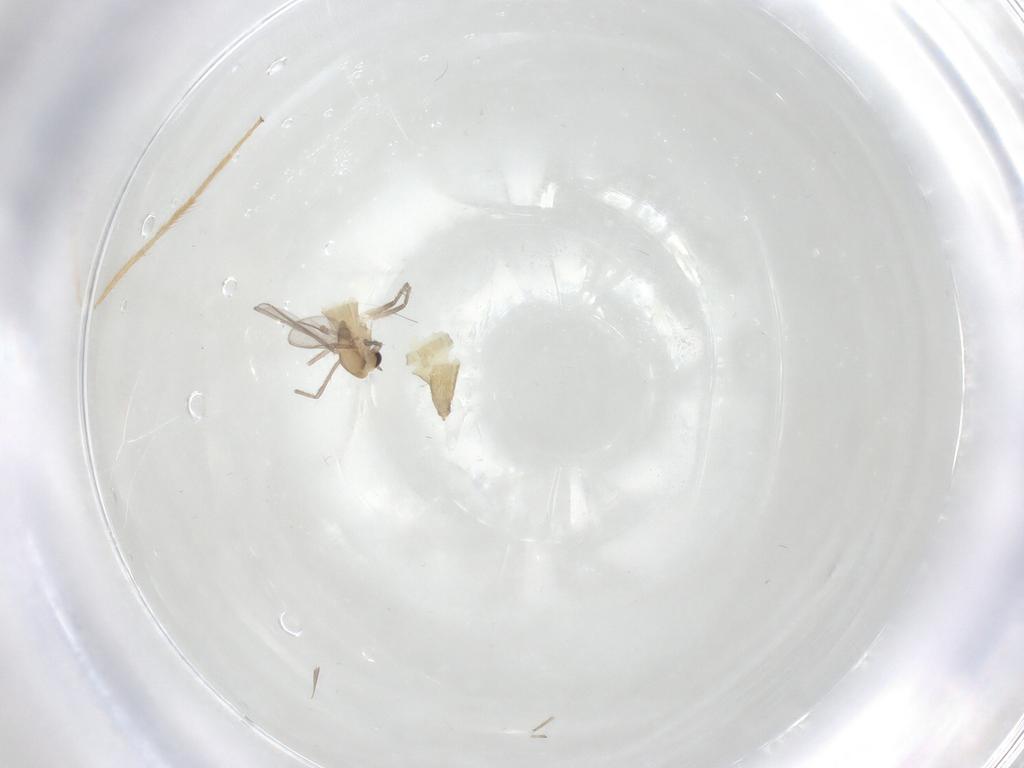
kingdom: Animalia
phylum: Arthropoda
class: Insecta
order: Diptera
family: Chironomidae
